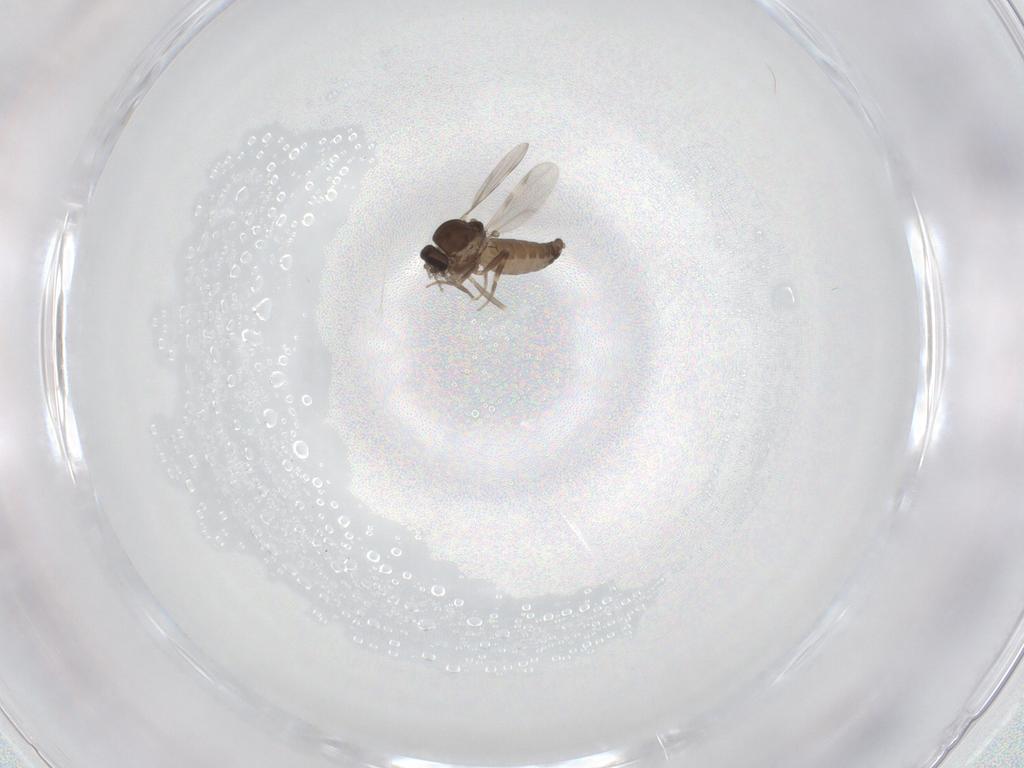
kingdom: Animalia
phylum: Arthropoda
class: Insecta
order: Diptera
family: Ceratopogonidae
